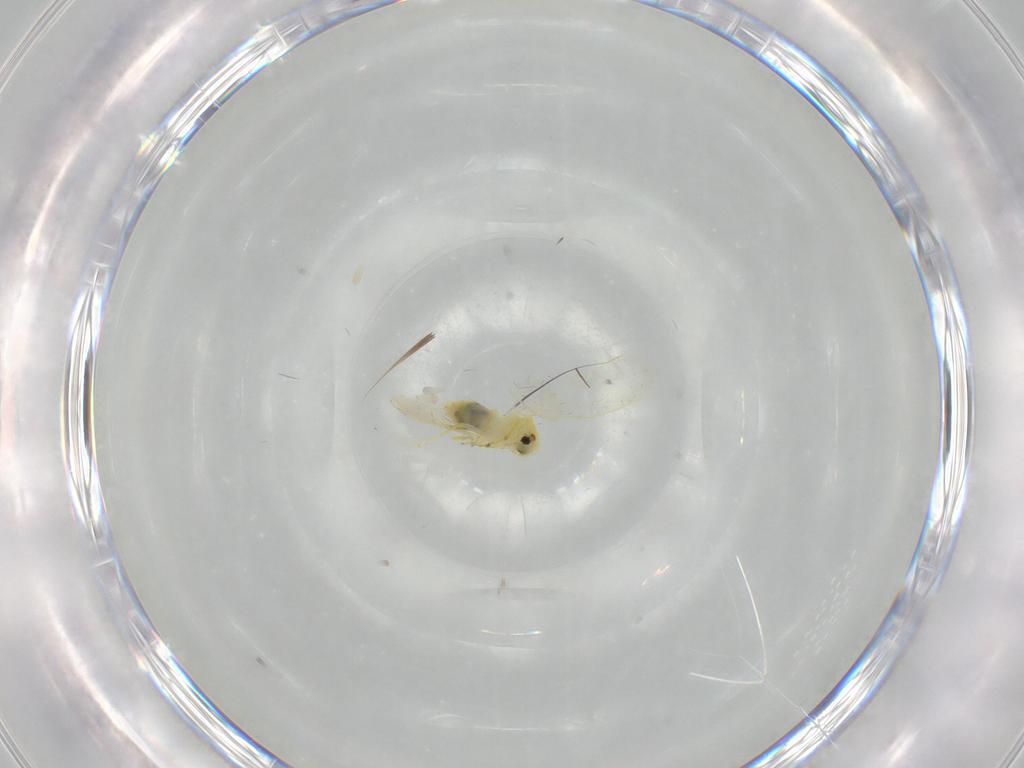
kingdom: Animalia
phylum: Arthropoda
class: Insecta
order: Hemiptera
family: Aleyrodidae
